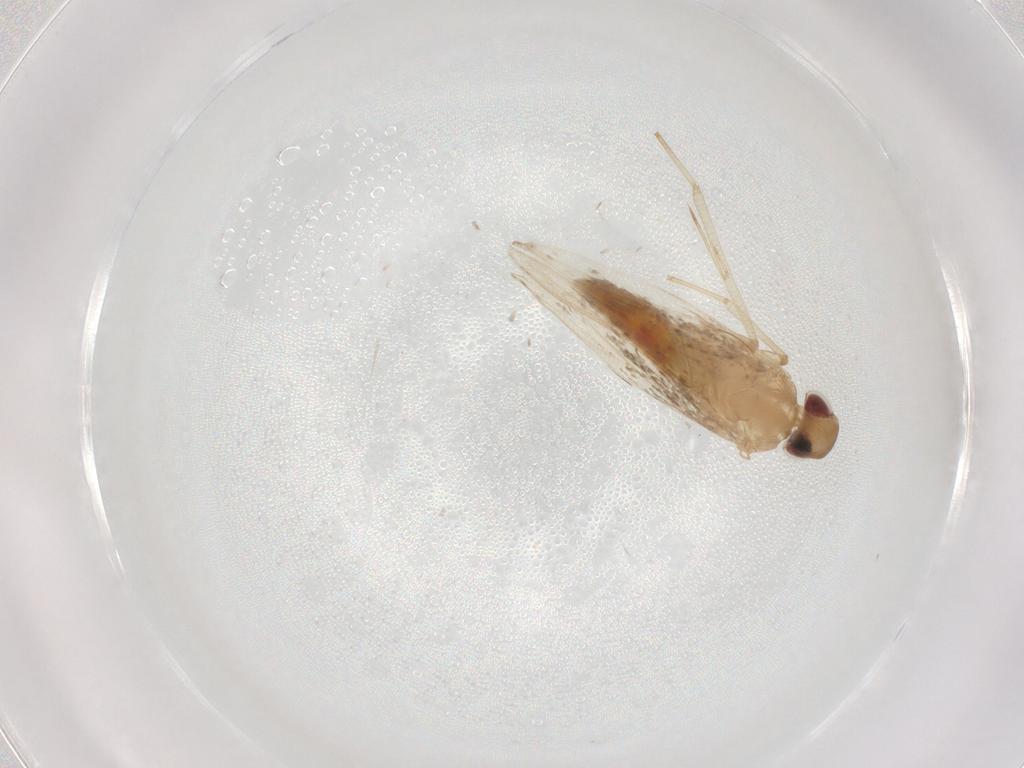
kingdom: Animalia
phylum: Arthropoda
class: Insecta
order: Lepidoptera
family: Cosmopterigidae
